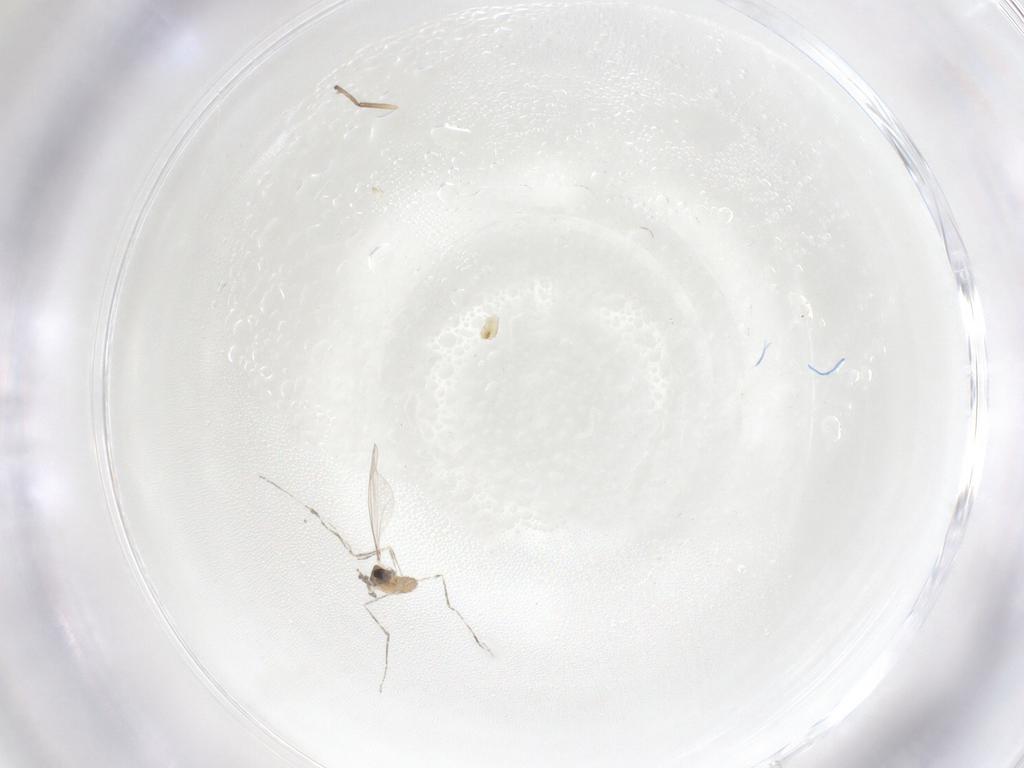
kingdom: Animalia
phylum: Arthropoda
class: Insecta
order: Diptera
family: Cecidomyiidae
